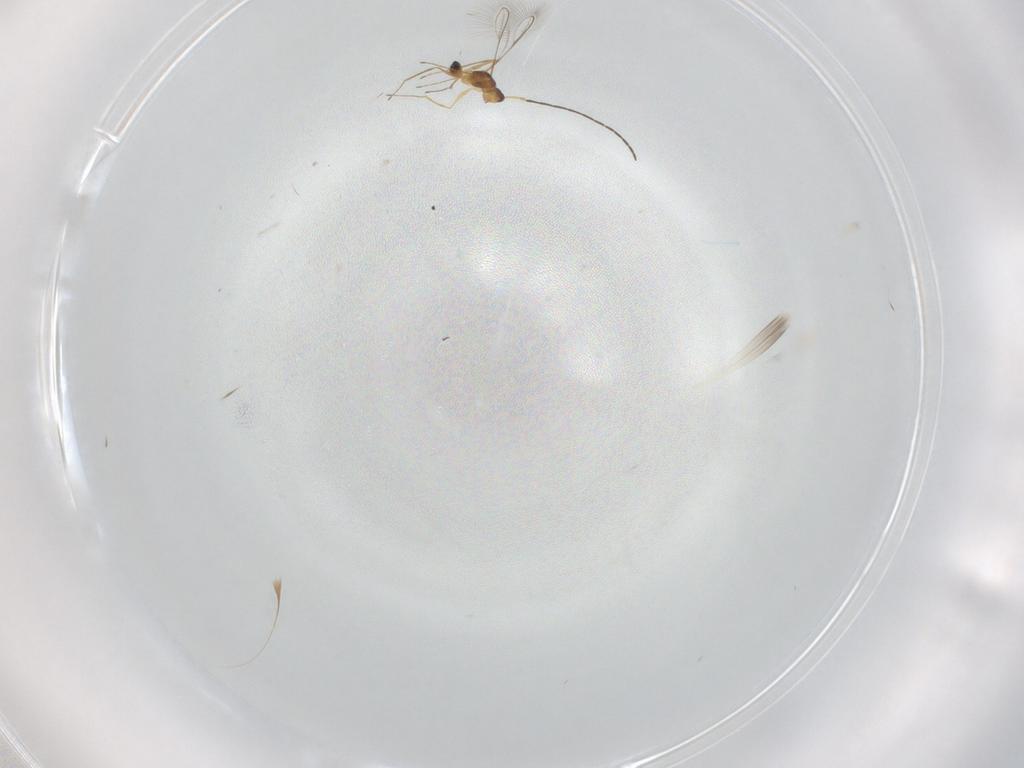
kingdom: Animalia
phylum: Arthropoda
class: Insecta
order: Hymenoptera
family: Mymaridae
